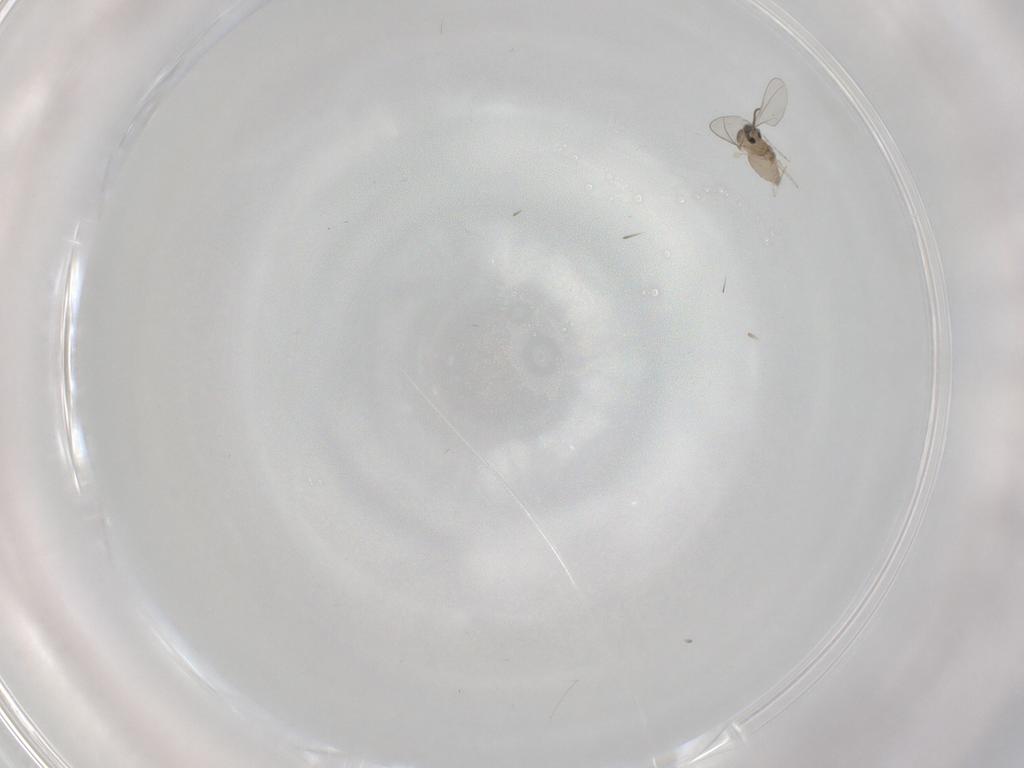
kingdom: Animalia
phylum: Arthropoda
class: Insecta
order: Diptera
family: Cecidomyiidae
